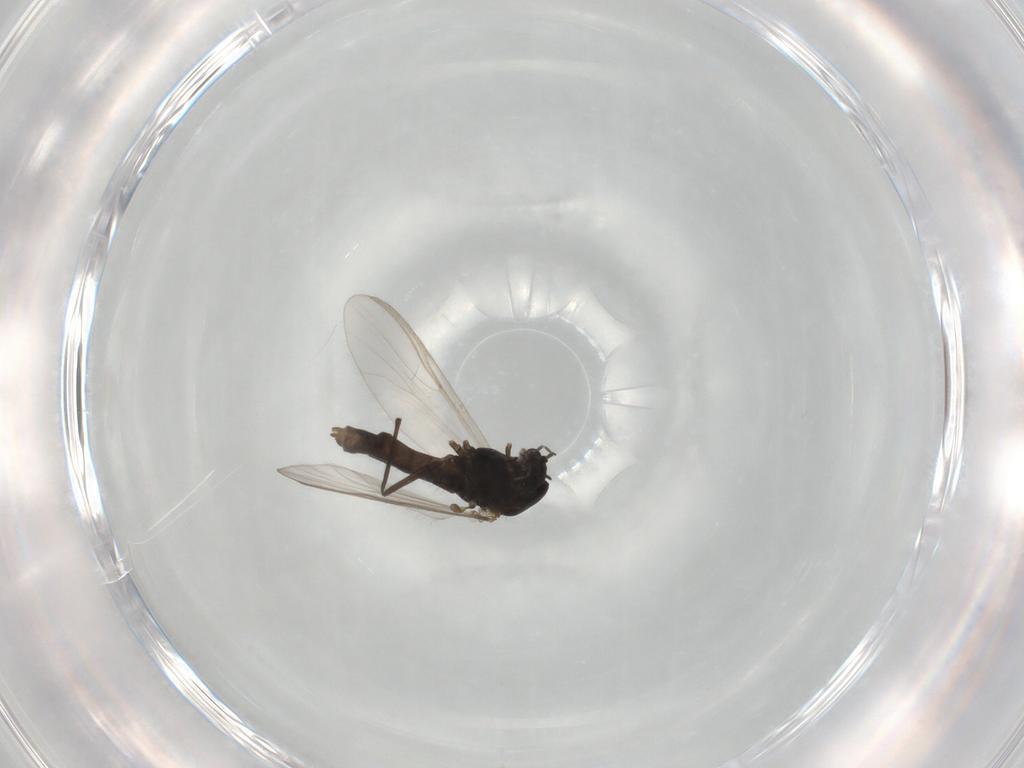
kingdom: Animalia
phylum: Arthropoda
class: Insecta
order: Diptera
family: Chironomidae
